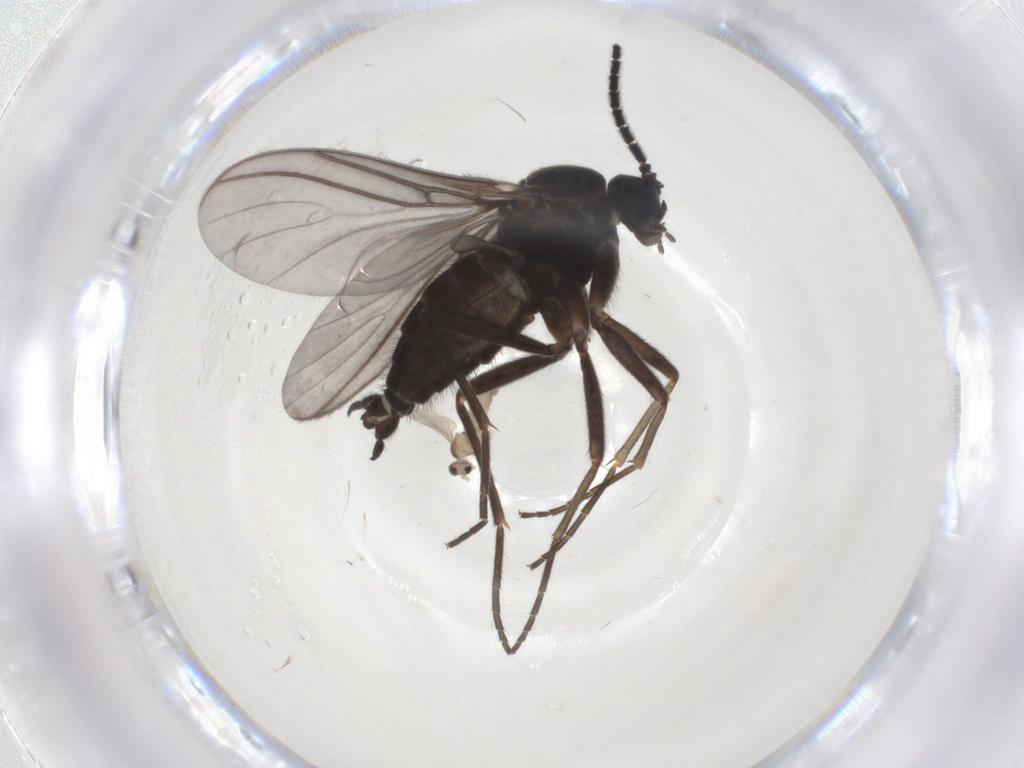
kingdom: Animalia
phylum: Arthropoda
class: Insecta
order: Diptera
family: Sciaridae
